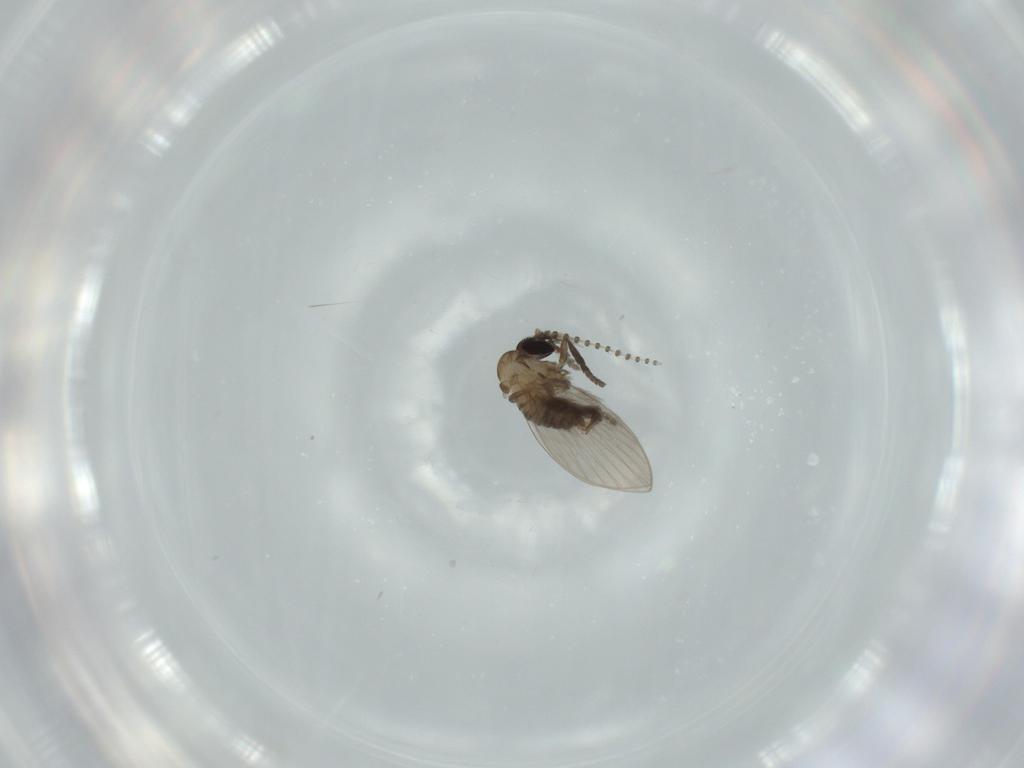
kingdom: Animalia
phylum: Arthropoda
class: Insecta
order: Diptera
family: Psychodidae
